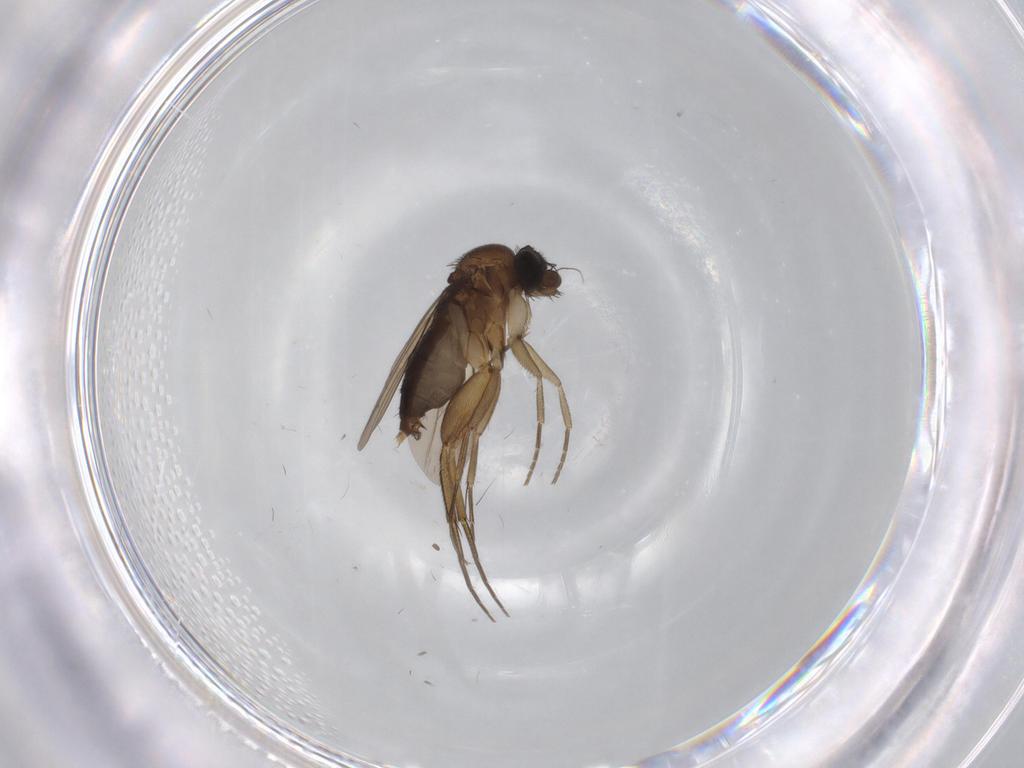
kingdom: Animalia
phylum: Arthropoda
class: Insecta
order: Diptera
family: Phoridae
